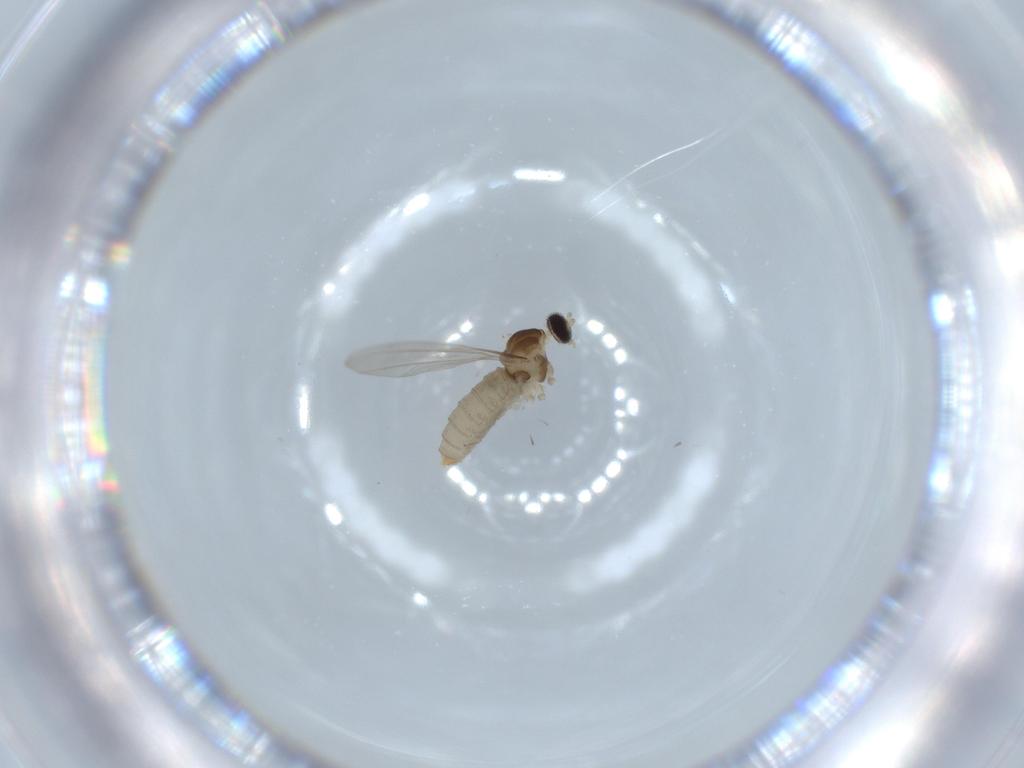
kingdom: Animalia
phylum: Arthropoda
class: Insecta
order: Diptera
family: Cecidomyiidae
